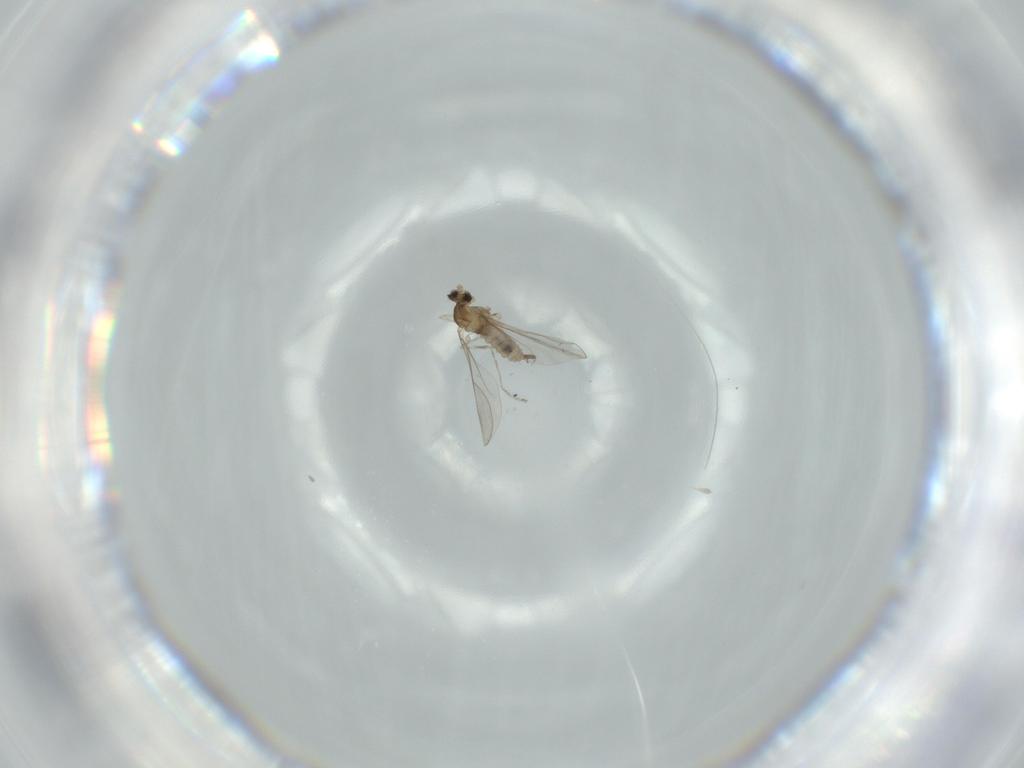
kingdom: Animalia
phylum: Arthropoda
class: Insecta
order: Diptera
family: Cecidomyiidae
